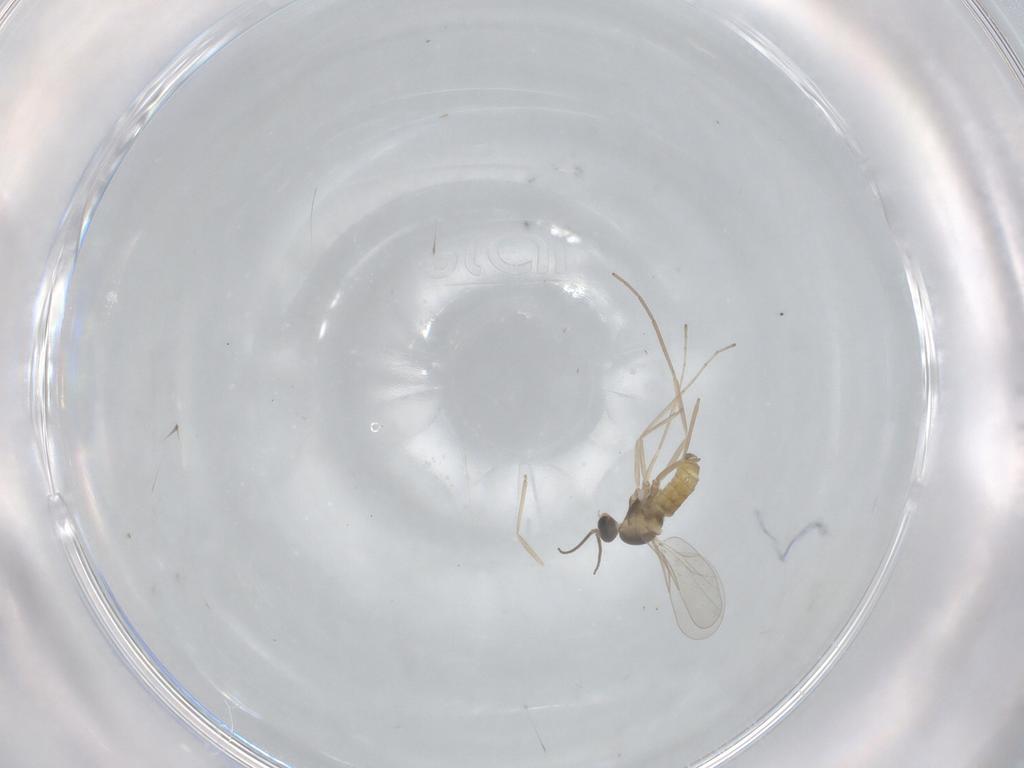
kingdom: Animalia
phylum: Arthropoda
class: Insecta
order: Diptera
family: Cecidomyiidae
